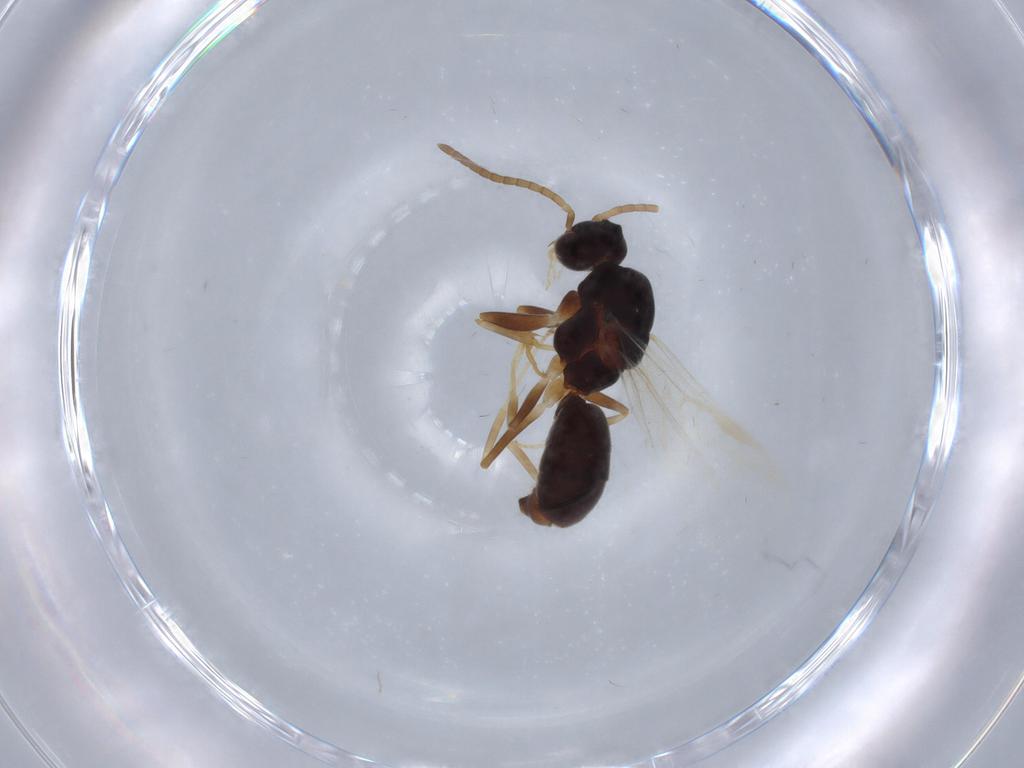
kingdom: Animalia
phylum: Arthropoda
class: Insecta
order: Hymenoptera
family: Formicidae
